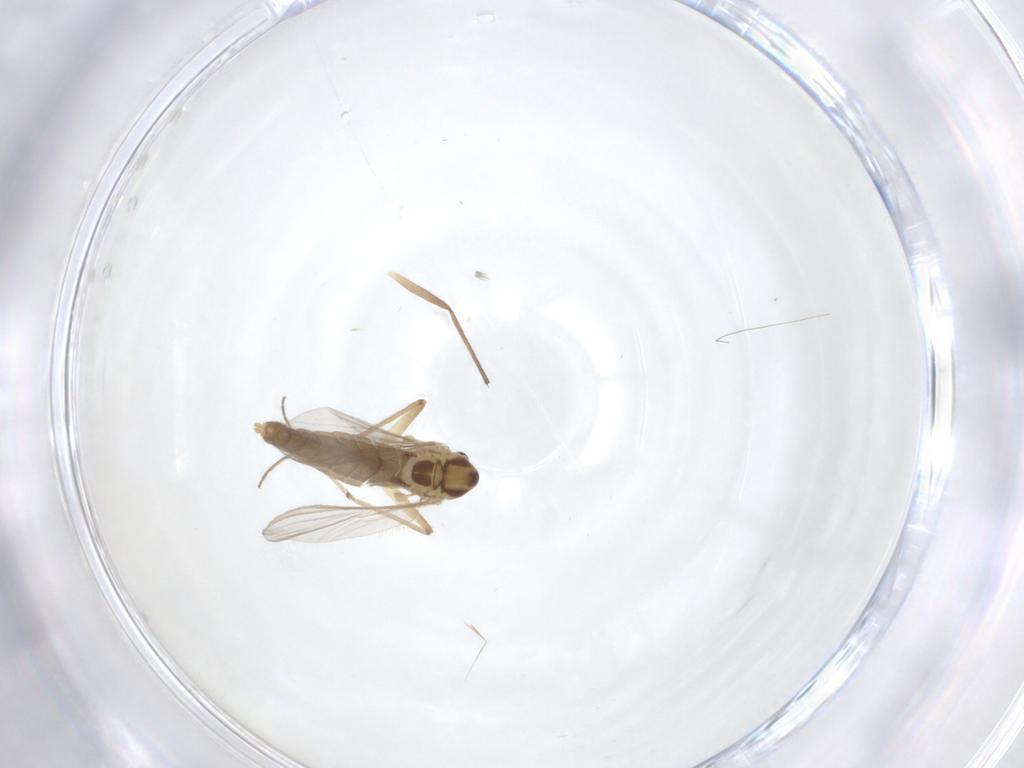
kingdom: Animalia
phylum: Arthropoda
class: Insecta
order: Diptera
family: Chironomidae
